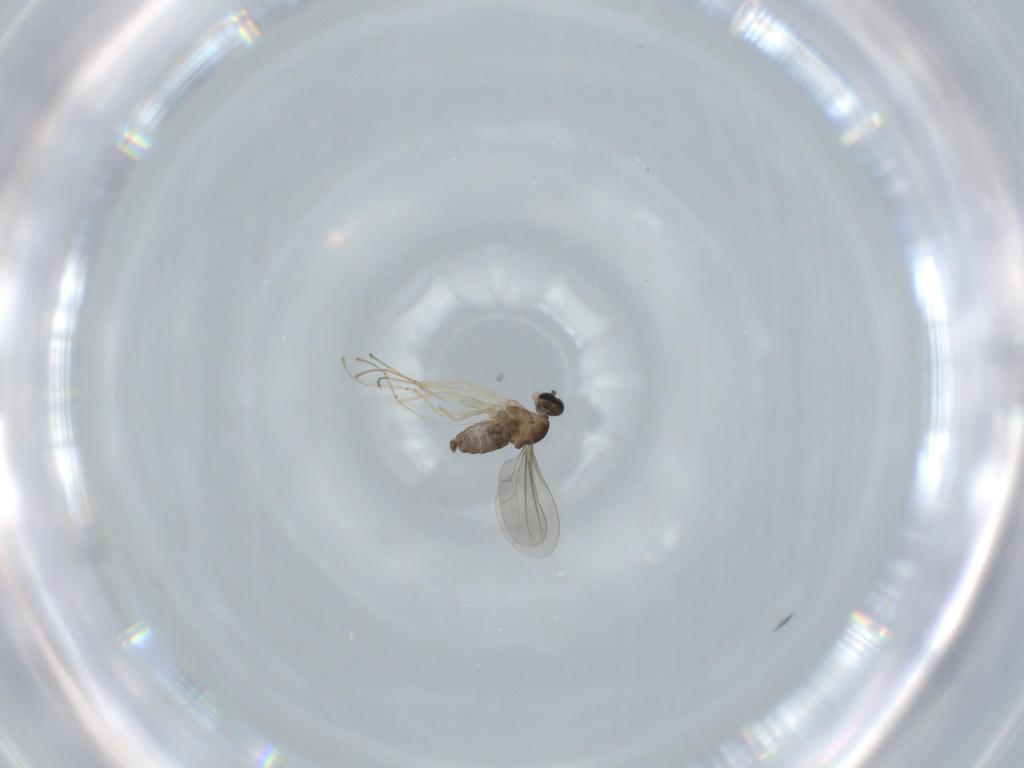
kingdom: Animalia
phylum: Arthropoda
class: Insecta
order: Diptera
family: Cecidomyiidae
